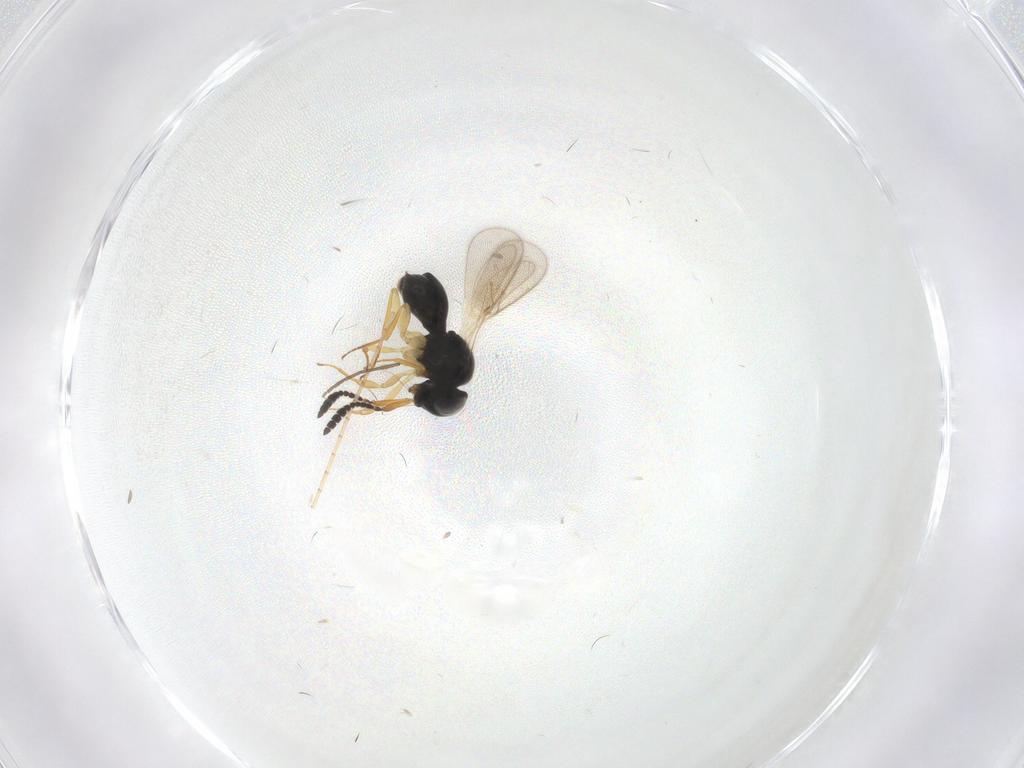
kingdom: Animalia
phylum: Arthropoda
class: Insecta
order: Hymenoptera
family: Scelionidae
